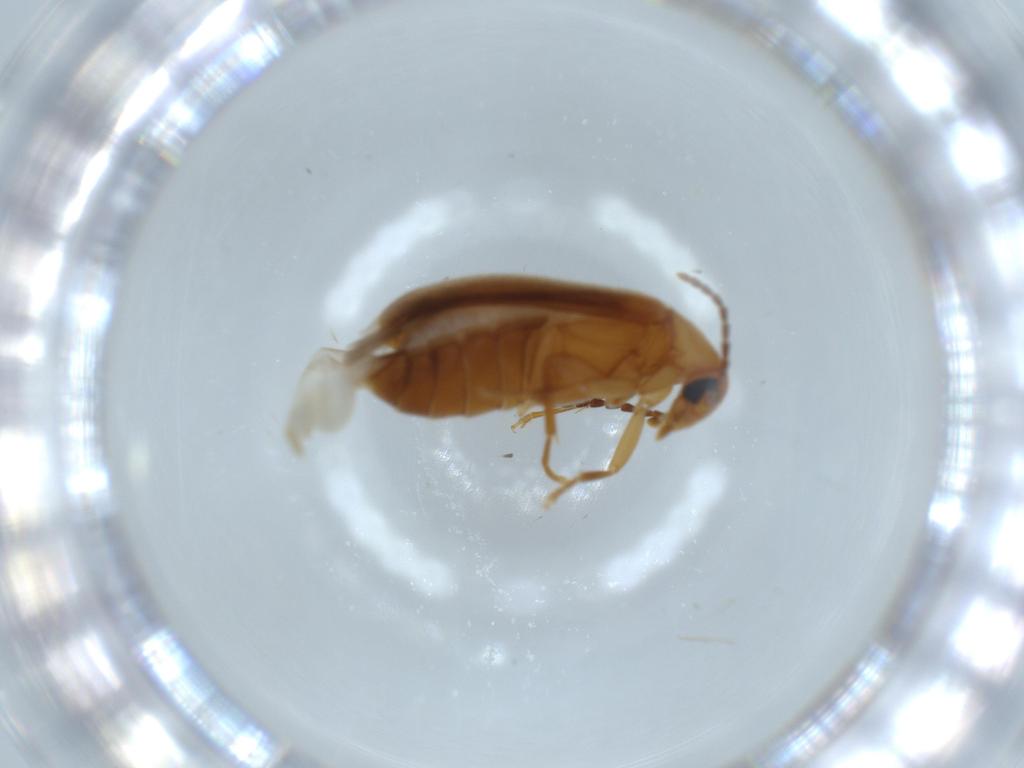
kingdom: Animalia
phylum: Arthropoda
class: Insecta
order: Coleoptera
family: Scraptiidae
